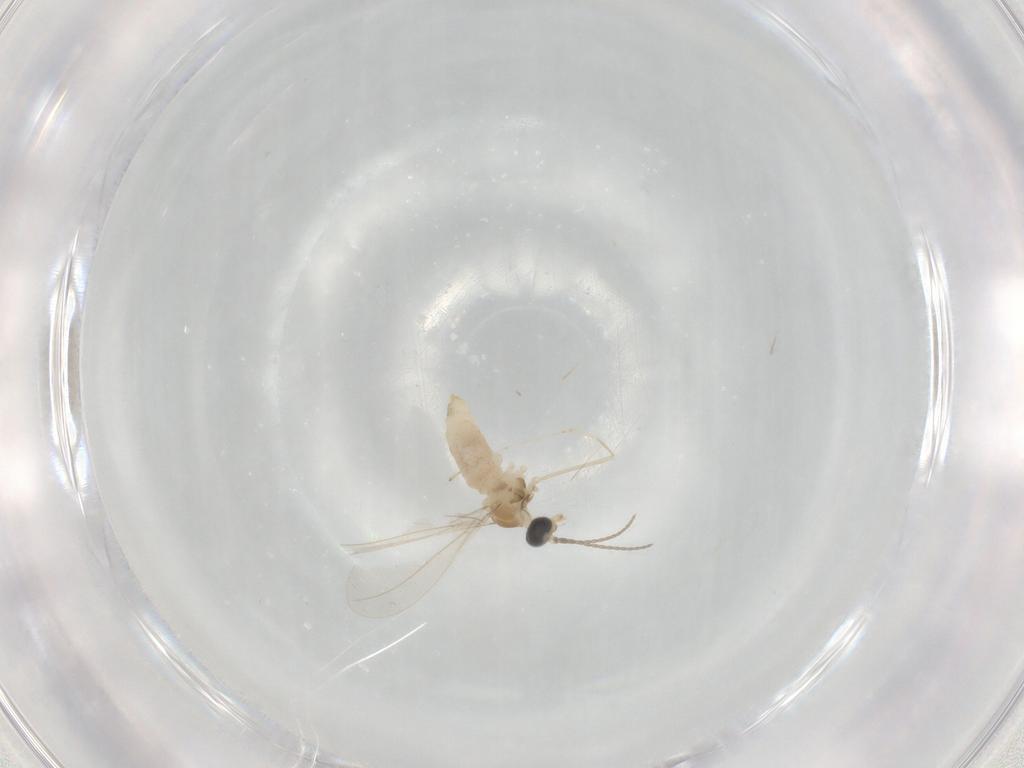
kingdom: Animalia
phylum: Arthropoda
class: Insecta
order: Diptera
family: Cecidomyiidae
